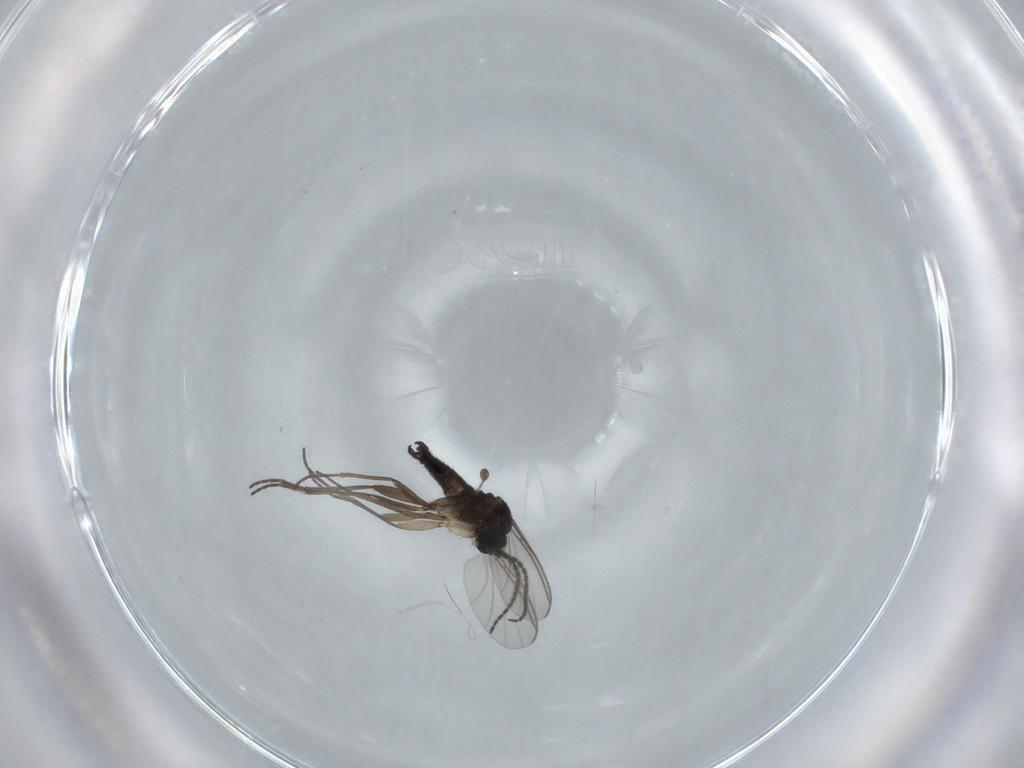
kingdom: Animalia
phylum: Arthropoda
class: Insecta
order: Diptera
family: Sciaridae
